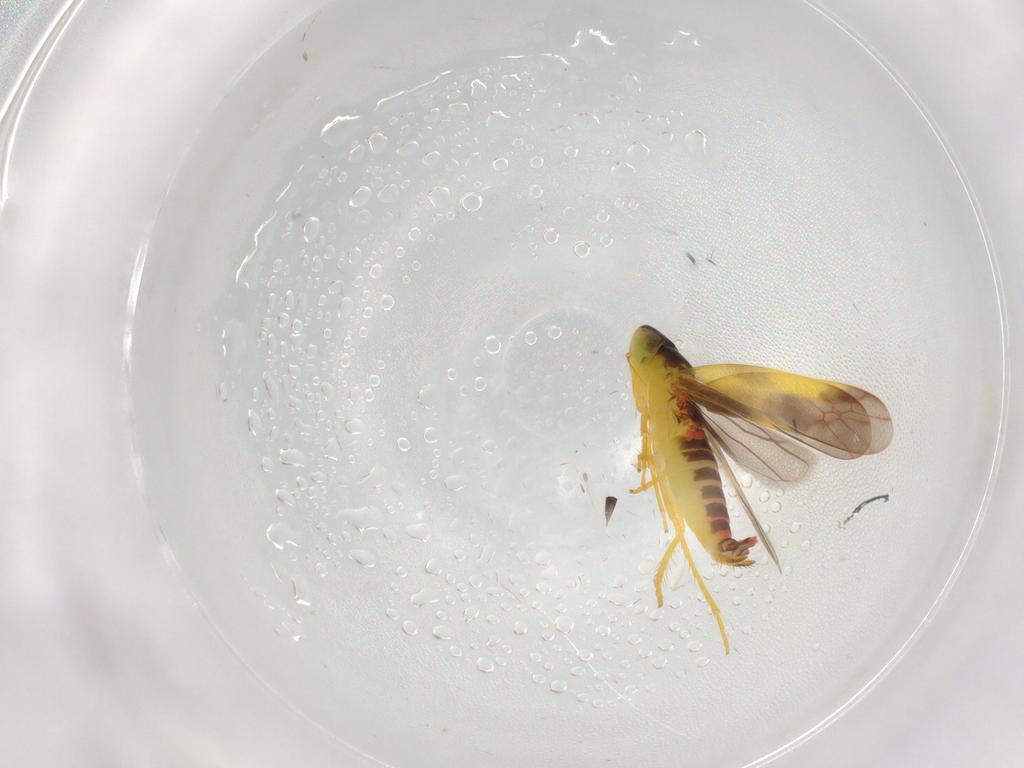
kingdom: Animalia
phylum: Arthropoda
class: Insecta
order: Hemiptera
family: Cicadellidae
